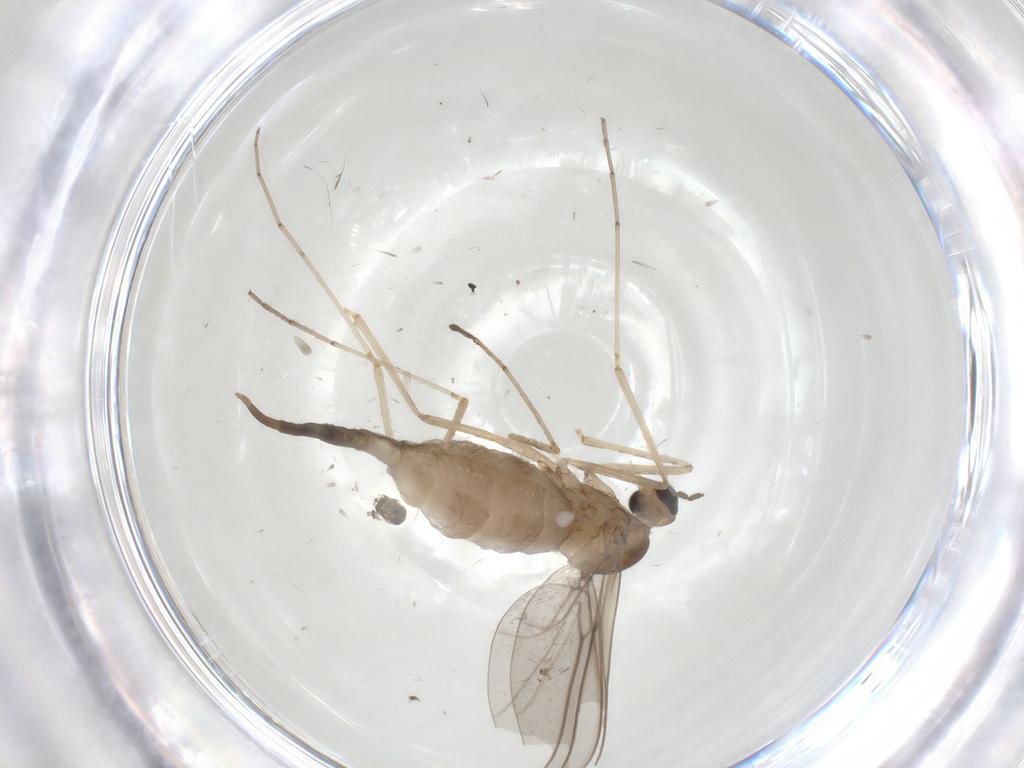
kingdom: Animalia
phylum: Arthropoda
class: Insecta
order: Diptera
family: Cecidomyiidae
